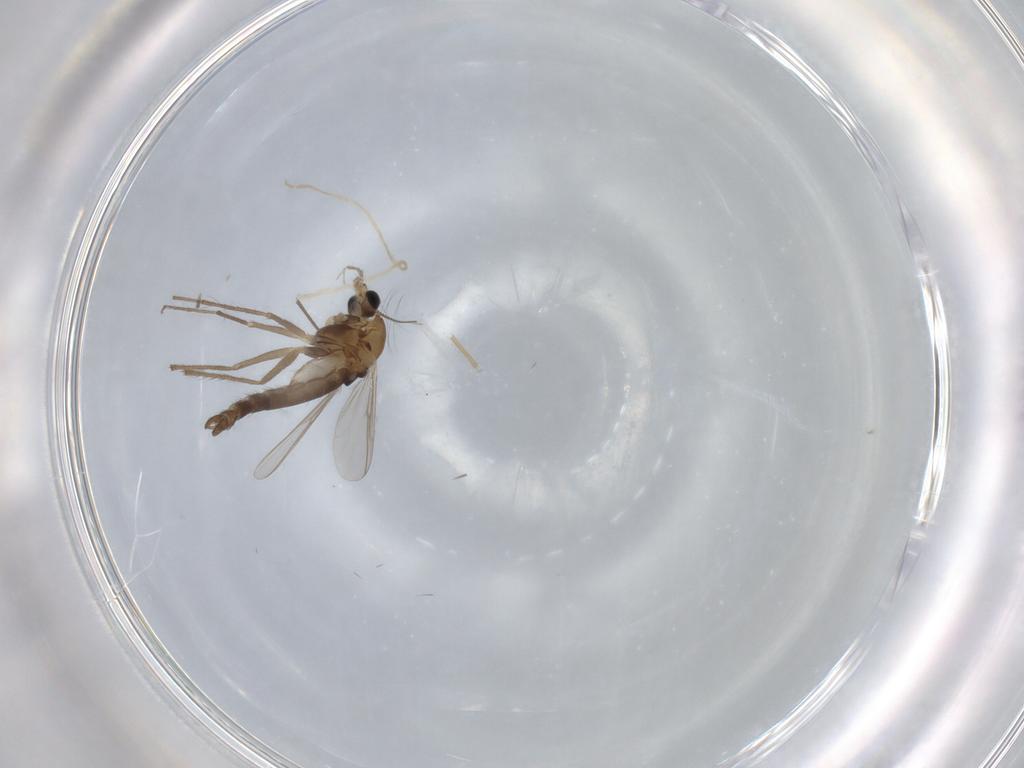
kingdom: Animalia
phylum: Arthropoda
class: Insecta
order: Diptera
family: Chironomidae
